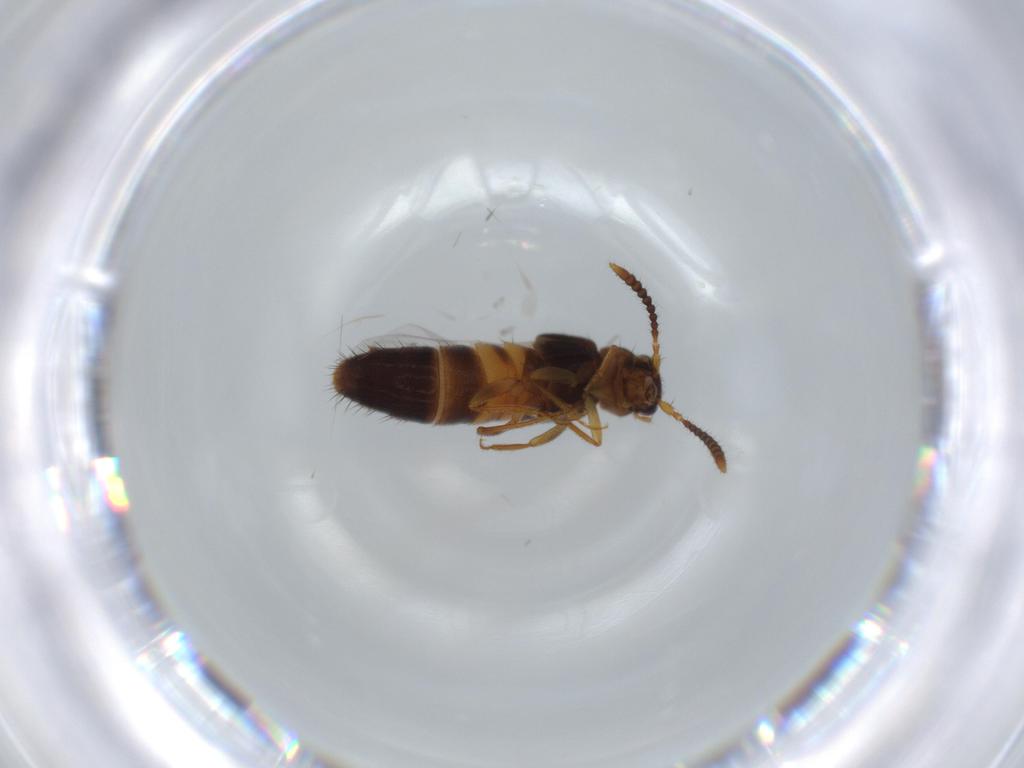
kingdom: Animalia
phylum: Arthropoda
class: Insecta
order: Coleoptera
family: Staphylinidae
